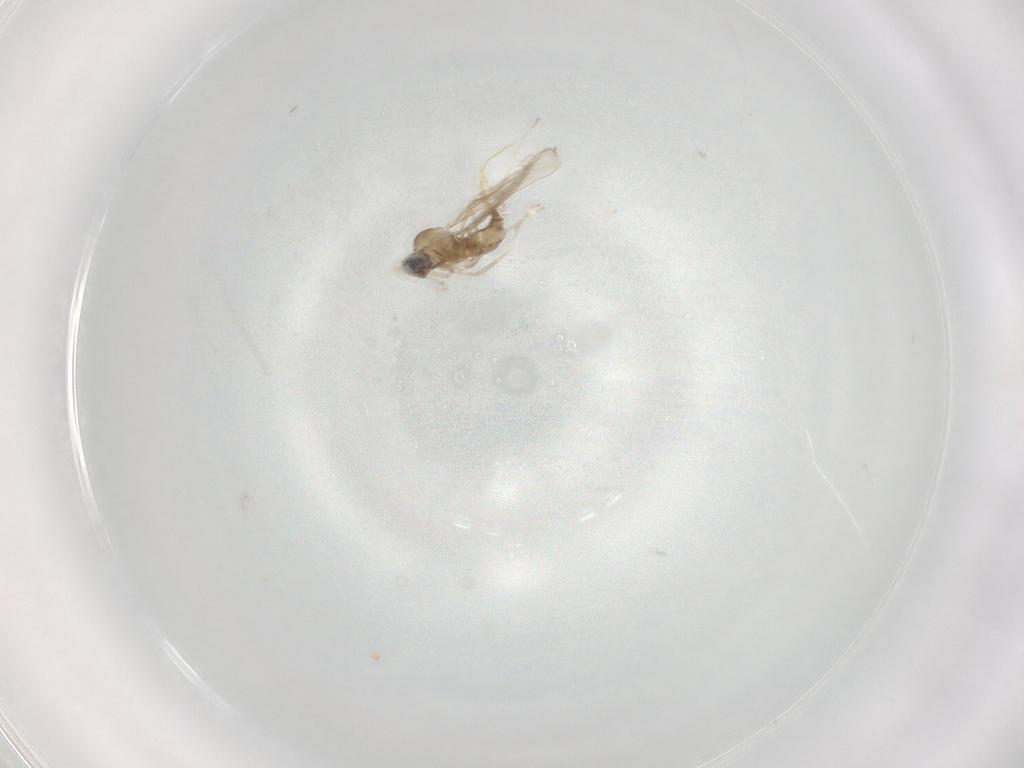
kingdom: Animalia
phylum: Arthropoda
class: Insecta
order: Diptera
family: Cecidomyiidae
